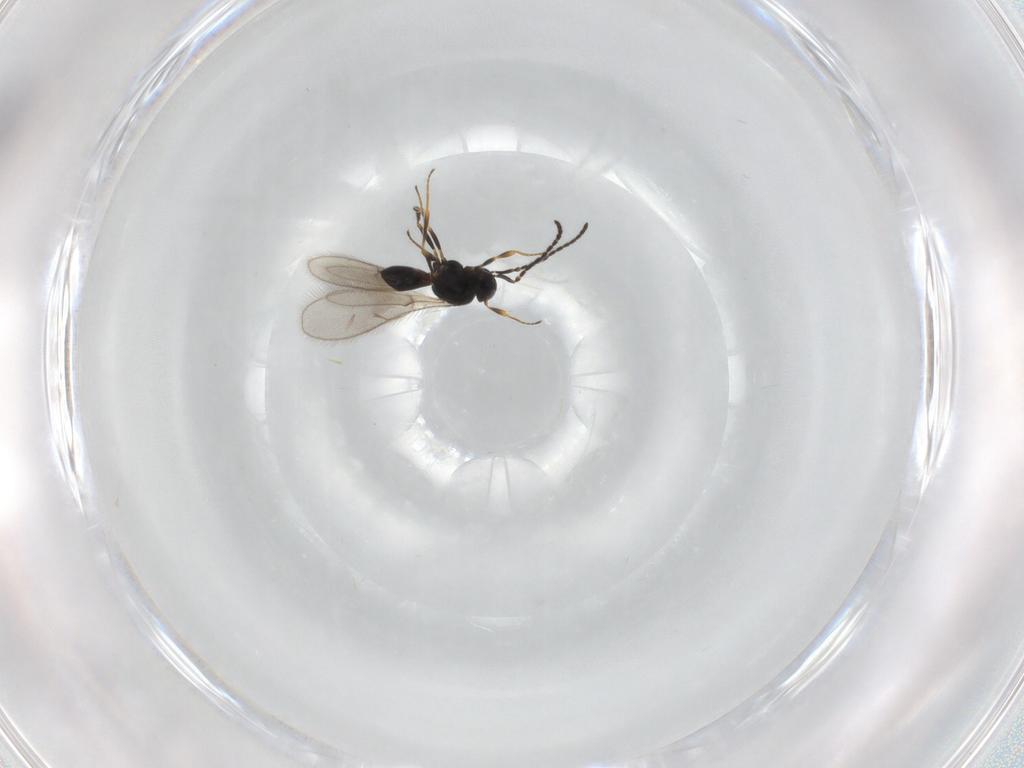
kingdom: Animalia
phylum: Arthropoda
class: Insecta
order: Hymenoptera
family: Scelionidae
